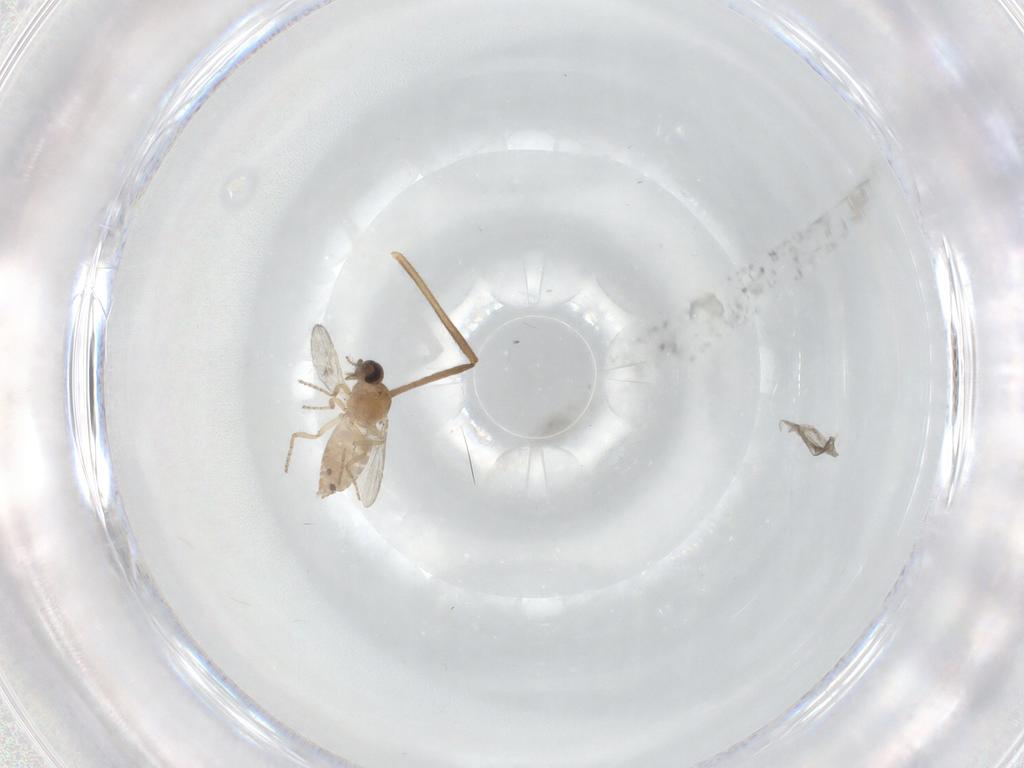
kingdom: Animalia
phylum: Arthropoda
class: Insecta
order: Diptera
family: Ceratopogonidae
